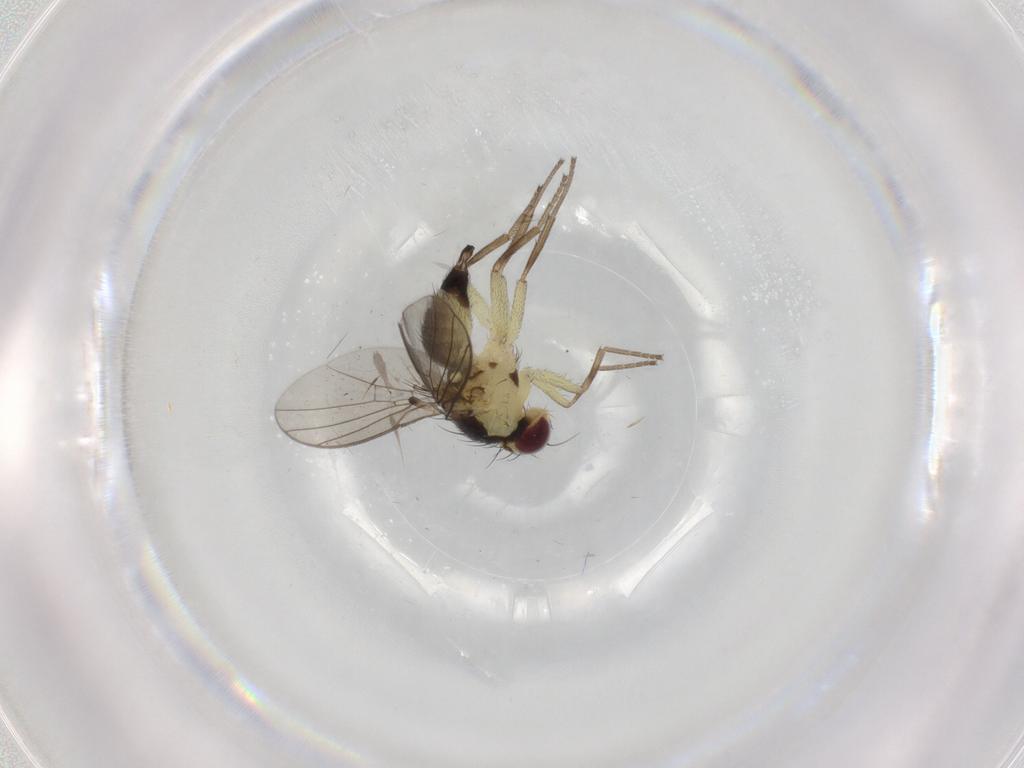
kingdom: Animalia
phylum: Arthropoda
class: Insecta
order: Diptera
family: Agromyzidae
